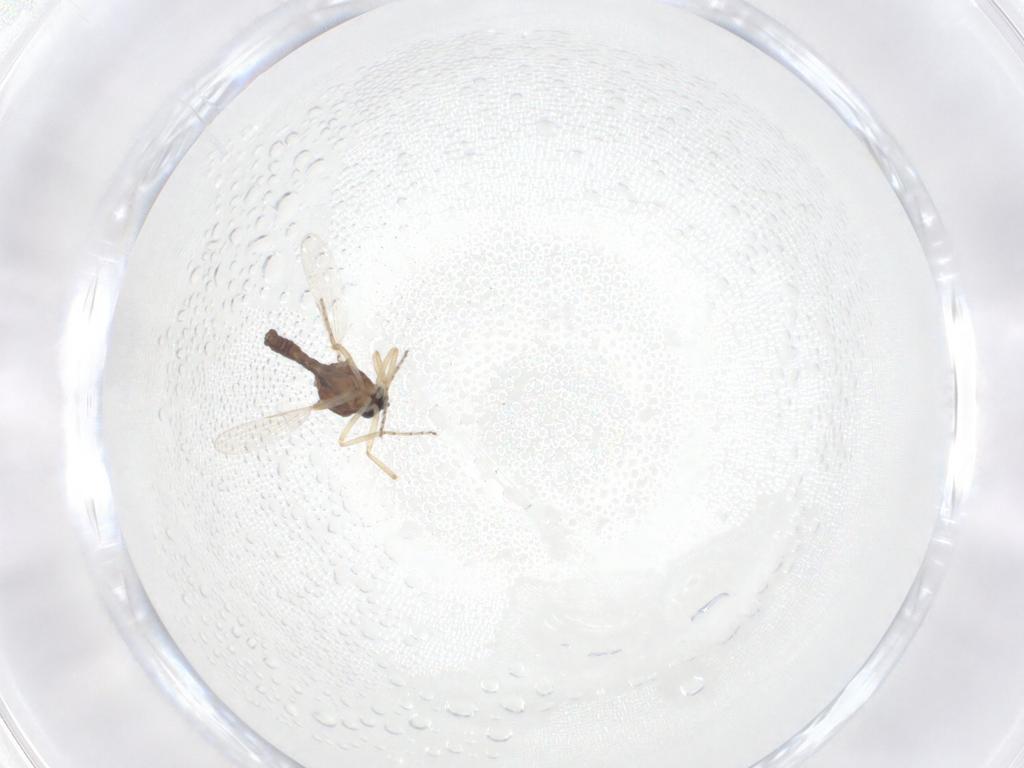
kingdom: Animalia
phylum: Arthropoda
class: Insecta
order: Diptera
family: Ceratopogonidae
